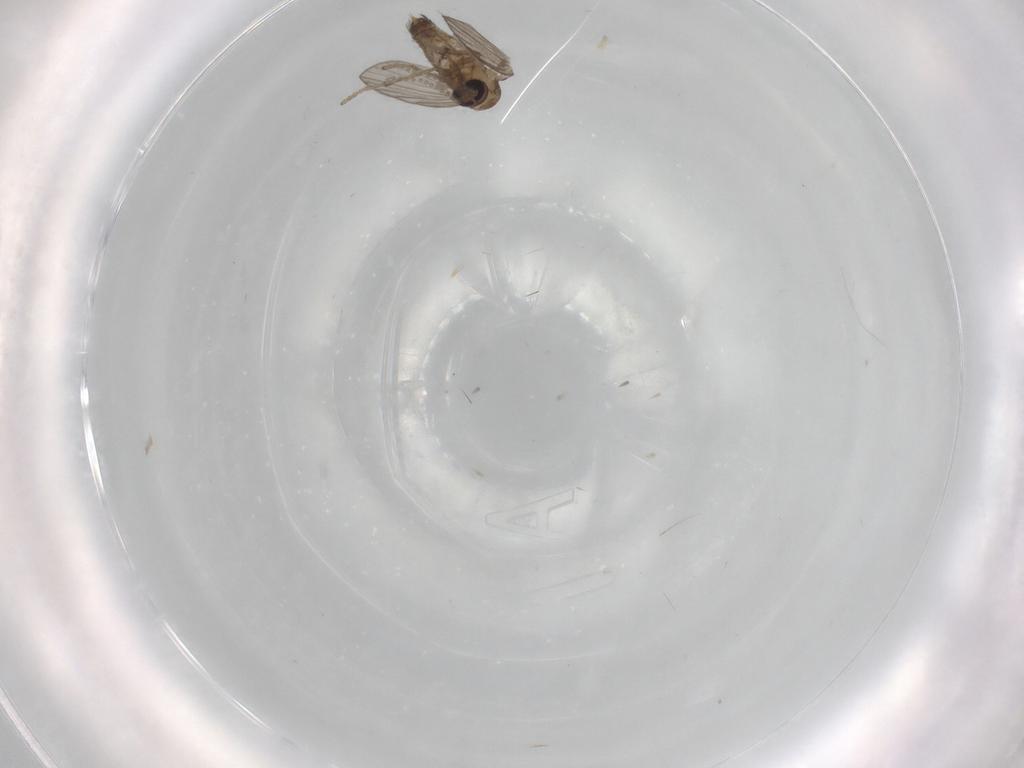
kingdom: Animalia
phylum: Arthropoda
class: Insecta
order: Diptera
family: Psychodidae
